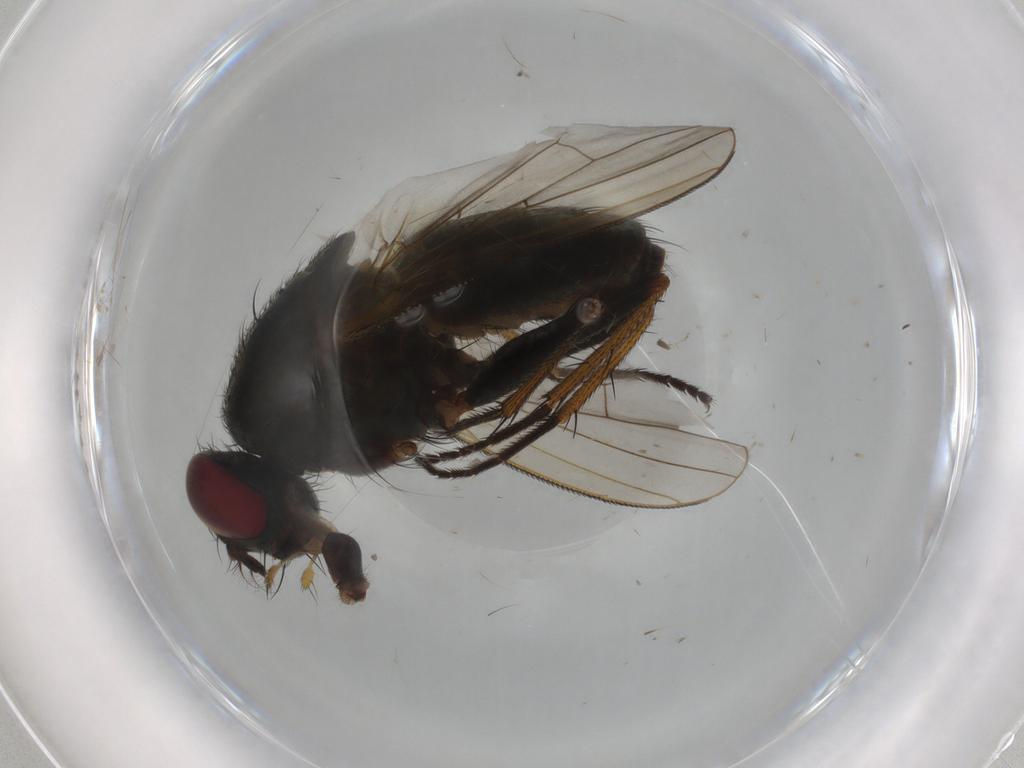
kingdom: Animalia
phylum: Arthropoda
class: Insecta
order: Diptera
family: Muscidae
